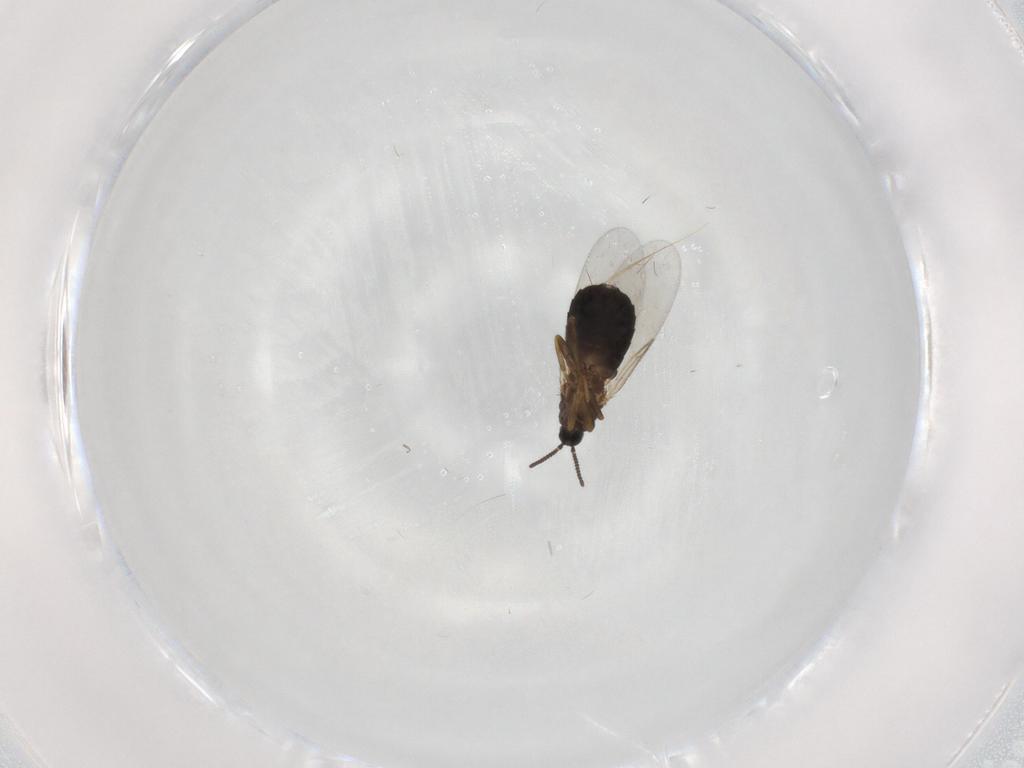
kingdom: Animalia
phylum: Arthropoda
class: Insecta
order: Diptera
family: Scatopsidae
